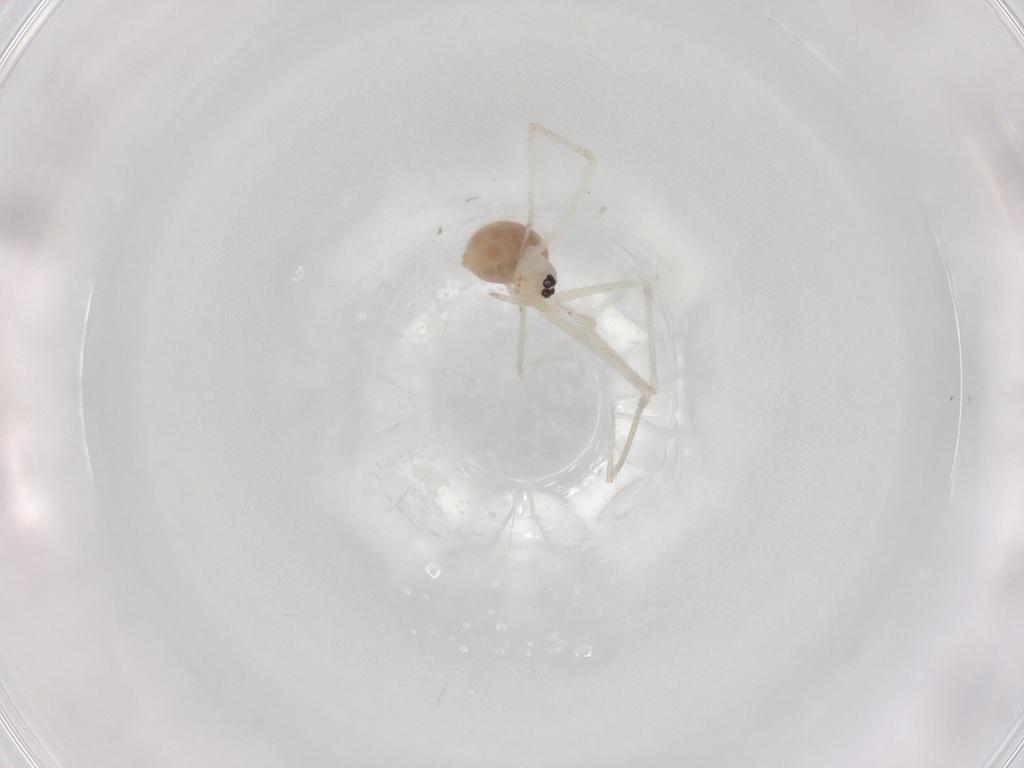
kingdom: Animalia
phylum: Arthropoda
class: Arachnida
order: Araneae
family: Pholcidae
